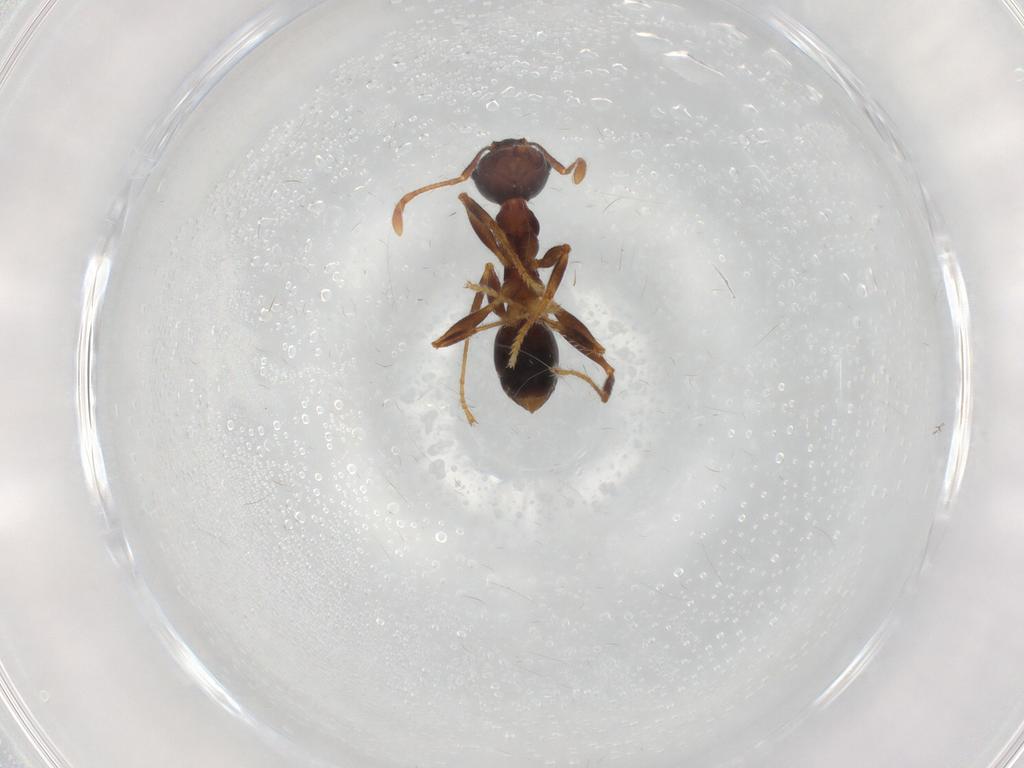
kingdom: Animalia
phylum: Arthropoda
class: Insecta
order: Hymenoptera
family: Formicidae
